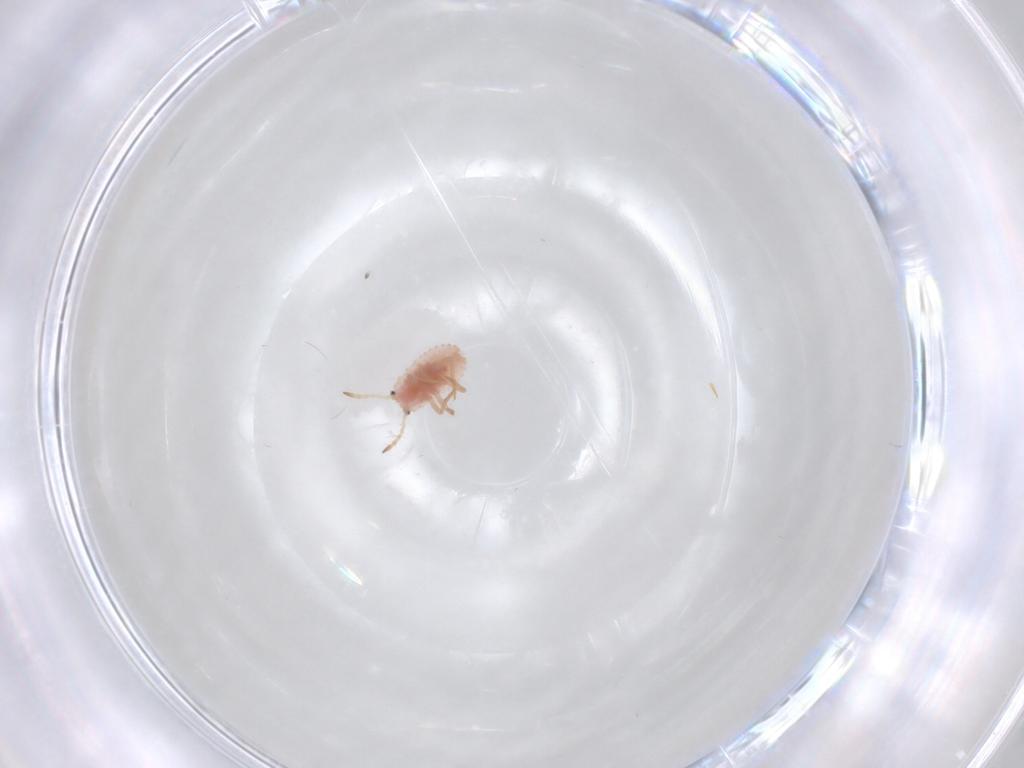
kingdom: Animalia
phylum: Arthropoda
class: Insecta
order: Hemiptera
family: Coccoidea_incertae_sedis
